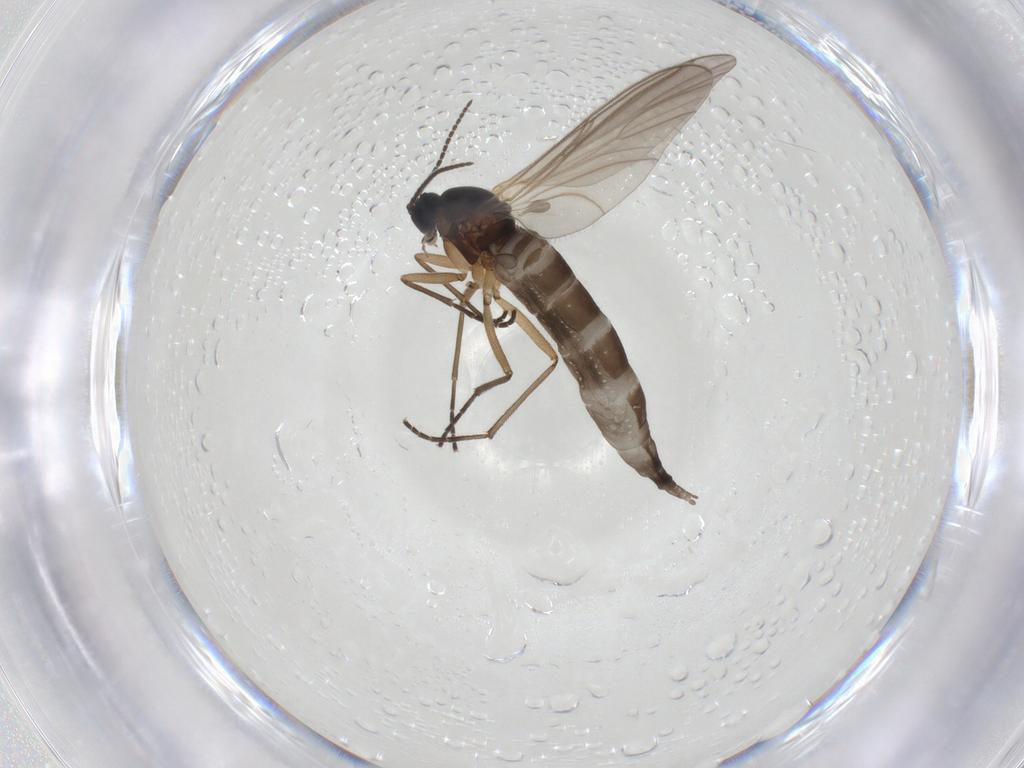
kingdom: Animalia
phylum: Arthropoda
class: Insecta
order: Diptera
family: Sciaridae
